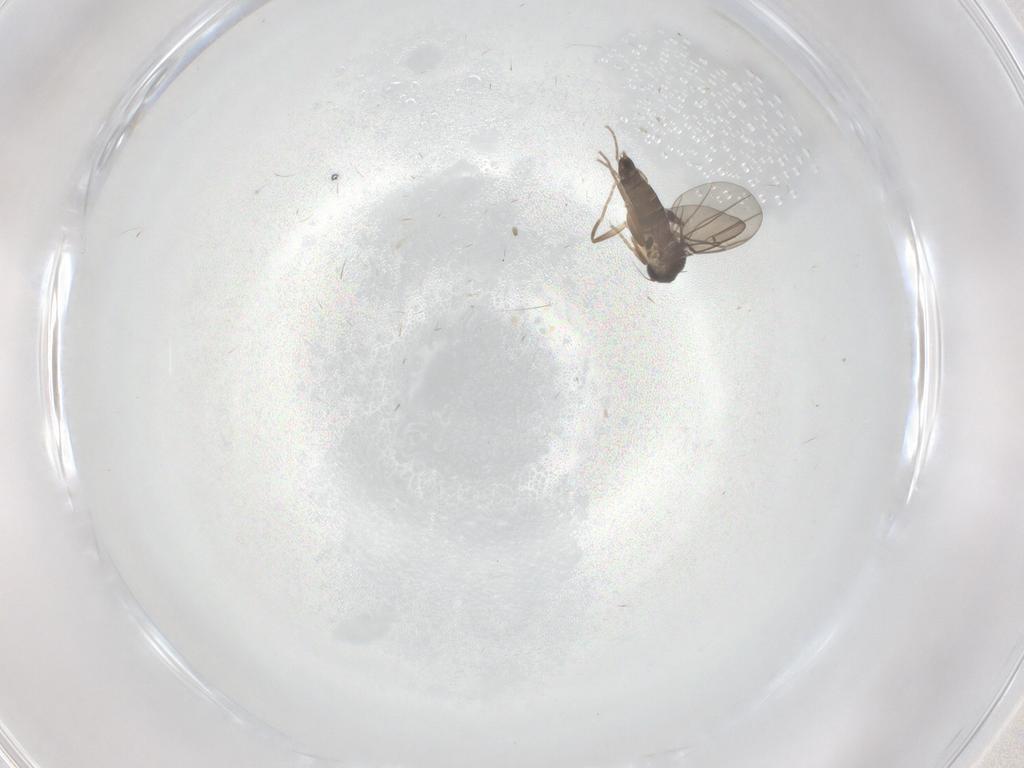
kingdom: Animalia
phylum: Arthropoda
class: Insecta
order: Diptera
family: Phoridae
